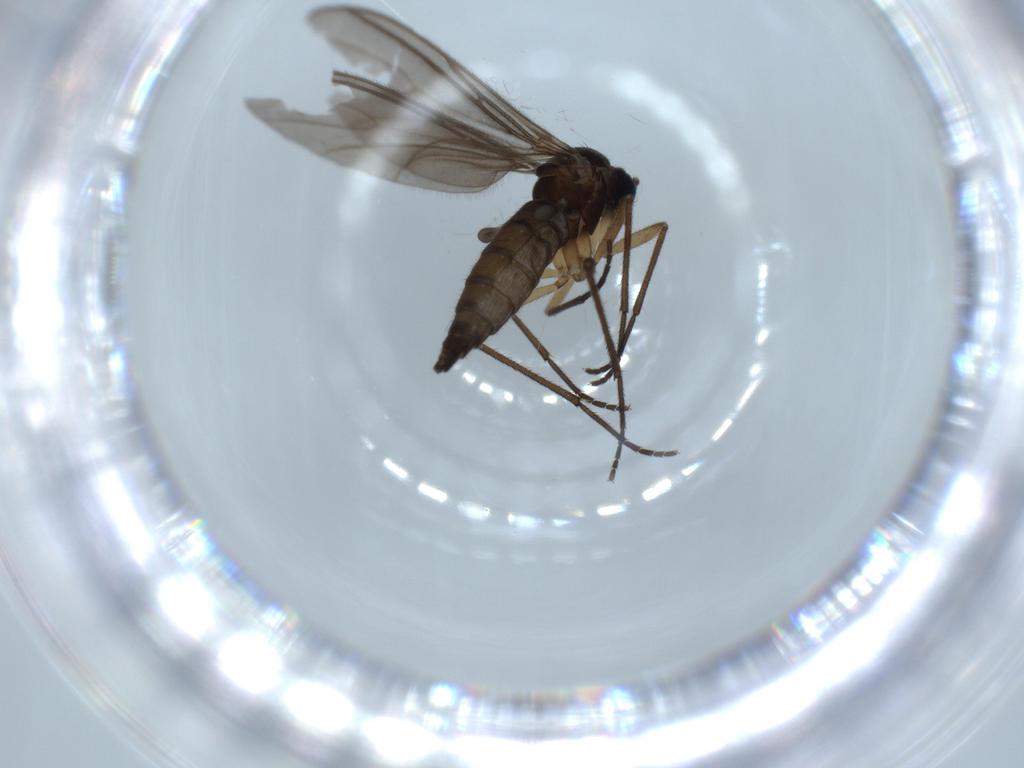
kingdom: Animalia
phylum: Arthropoda
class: Insecta
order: Diptera
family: Sciaridae
